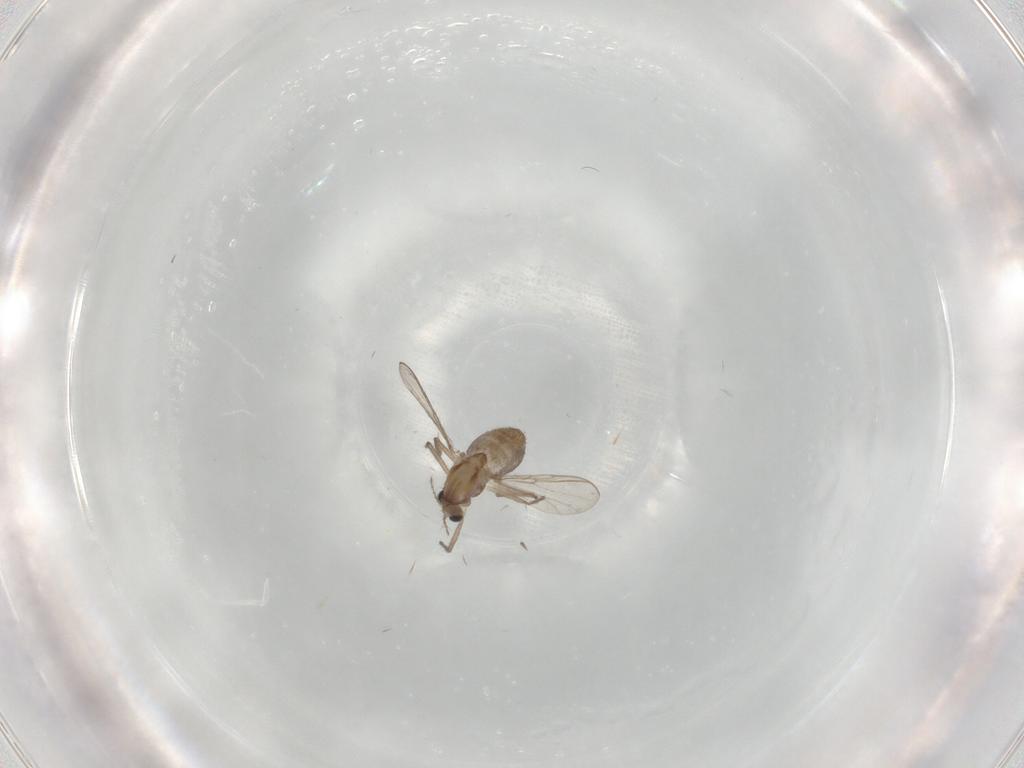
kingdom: Animalia
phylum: Arthropoda
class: Insecta
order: Diptera
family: Chironomidae
